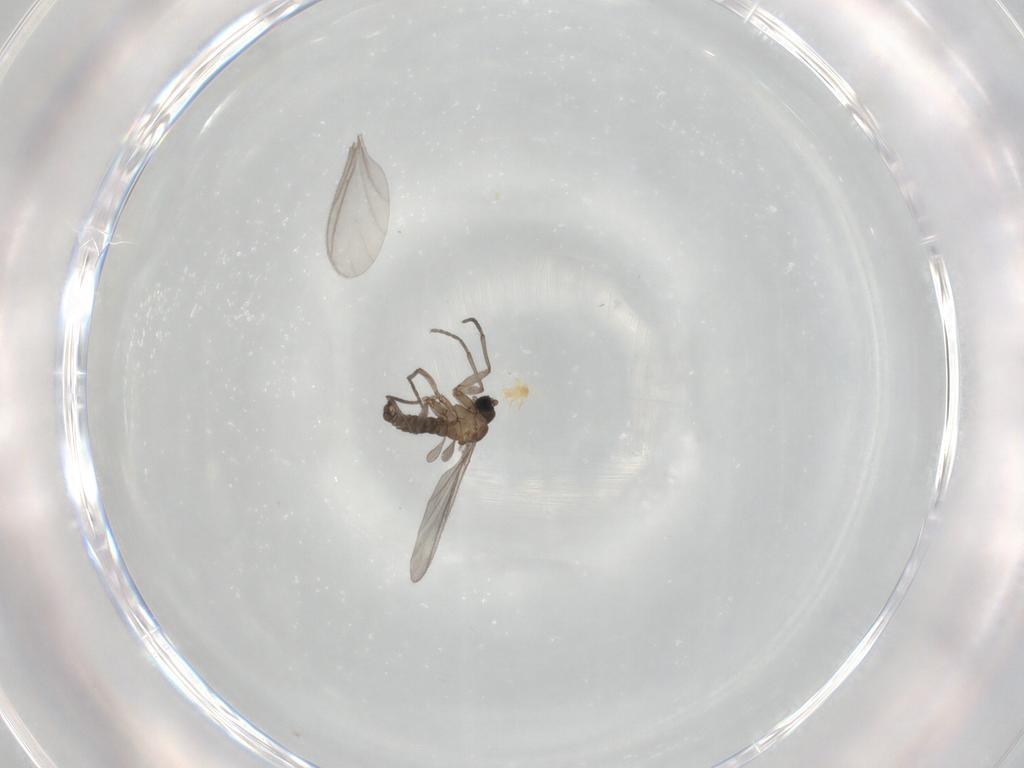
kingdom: Animalia
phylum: Arthropoda
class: Insecta
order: Diptera
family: Sciaridae
